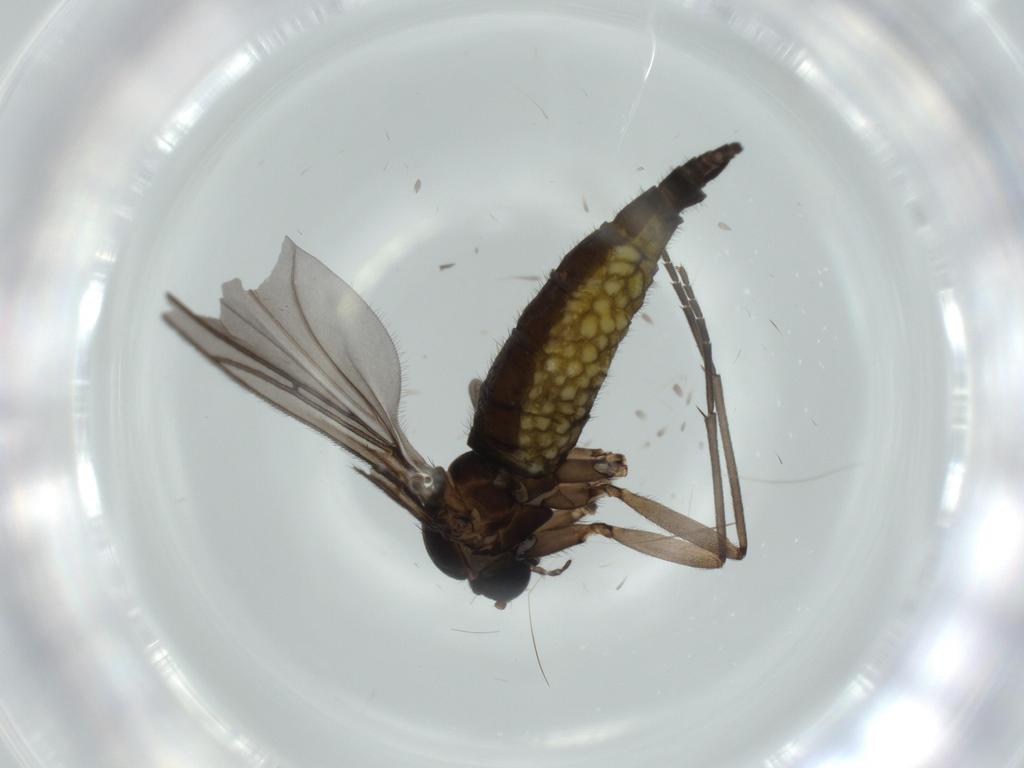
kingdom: Animalia
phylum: Arthropoda
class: Insecta
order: Diptera
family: Sciaridae
